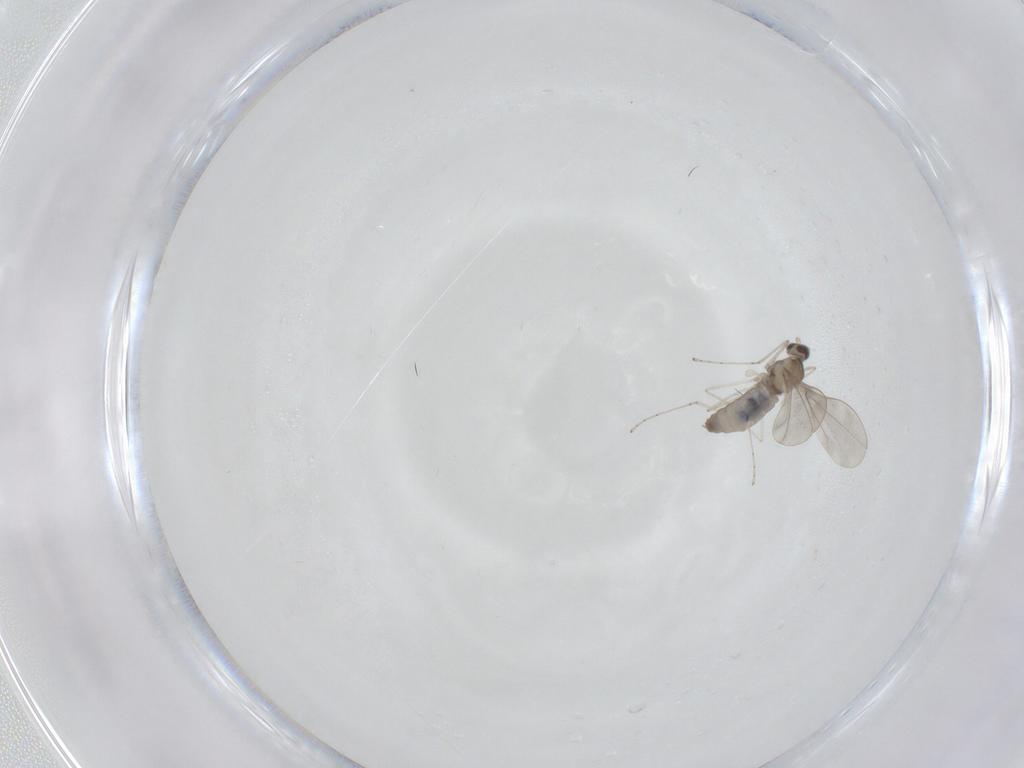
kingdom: Animalia
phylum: Arthropoda
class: Insecta
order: Diptera
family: Cecidomyiidae
